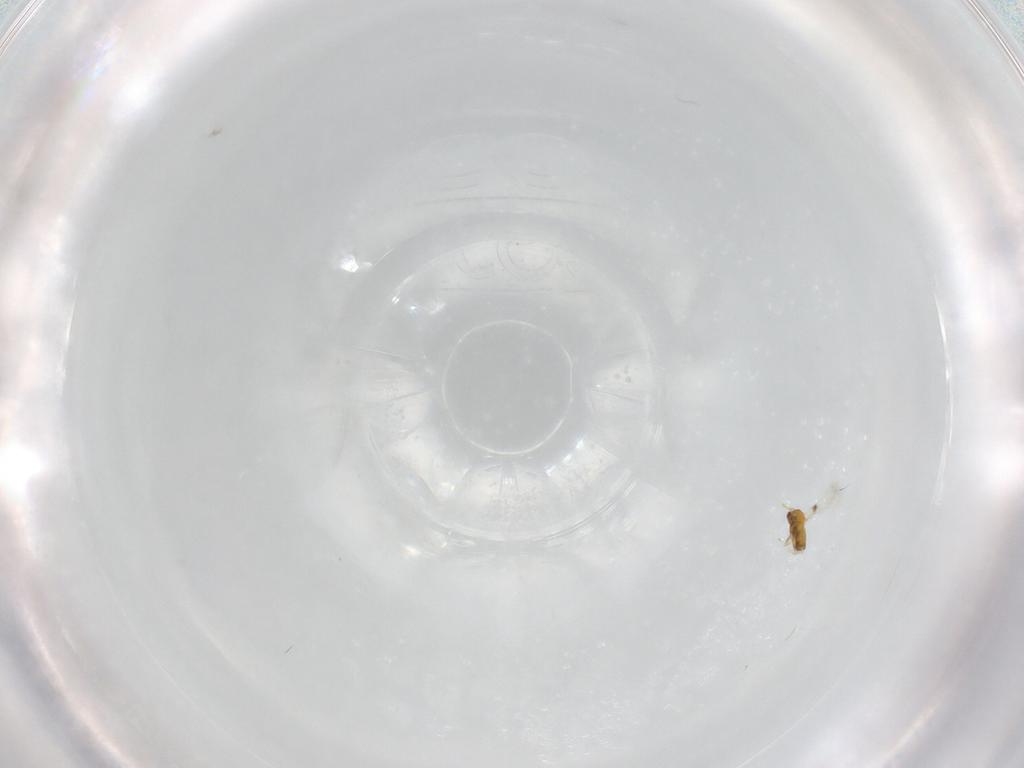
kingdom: Animalia
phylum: Arthropoda
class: Insecta
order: Hymenoptera
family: Trichogrammatidae
